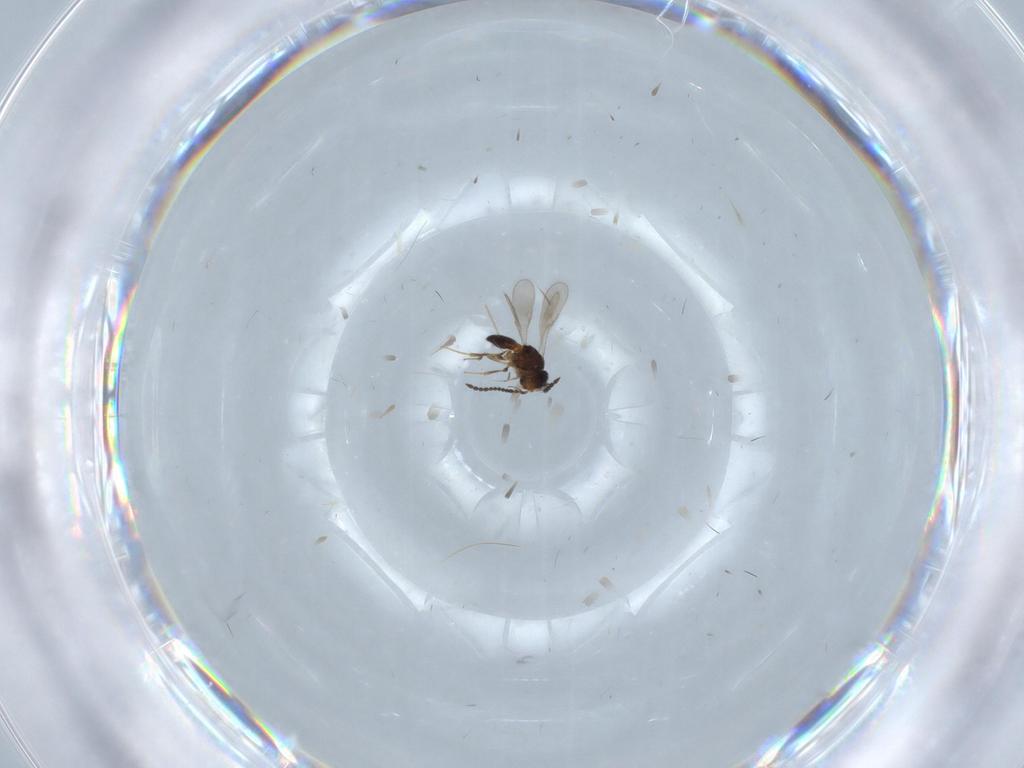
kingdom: Animalia
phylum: Arthropoda
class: Insecta
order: Hymenoptera
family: Scelionidae
